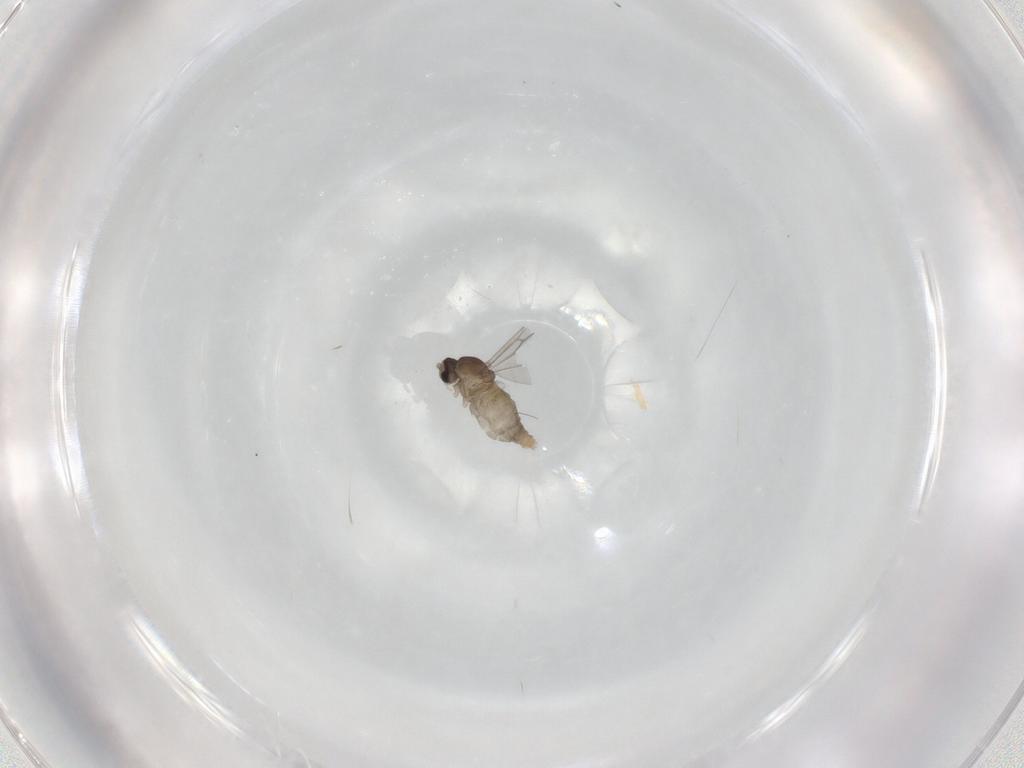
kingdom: Animalia
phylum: Arthropoda
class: Insecta
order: Diptera
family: Cecidomyiidae
